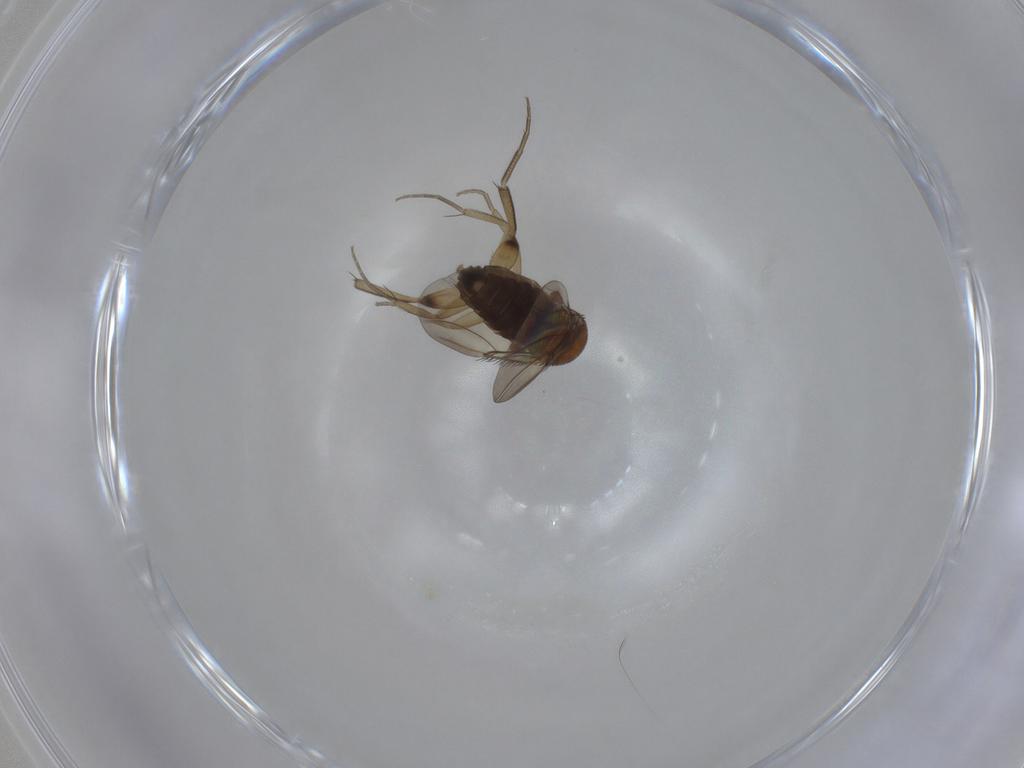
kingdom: Animalia
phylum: Arthropoda
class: Insecta
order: Diptera
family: Phoridae
